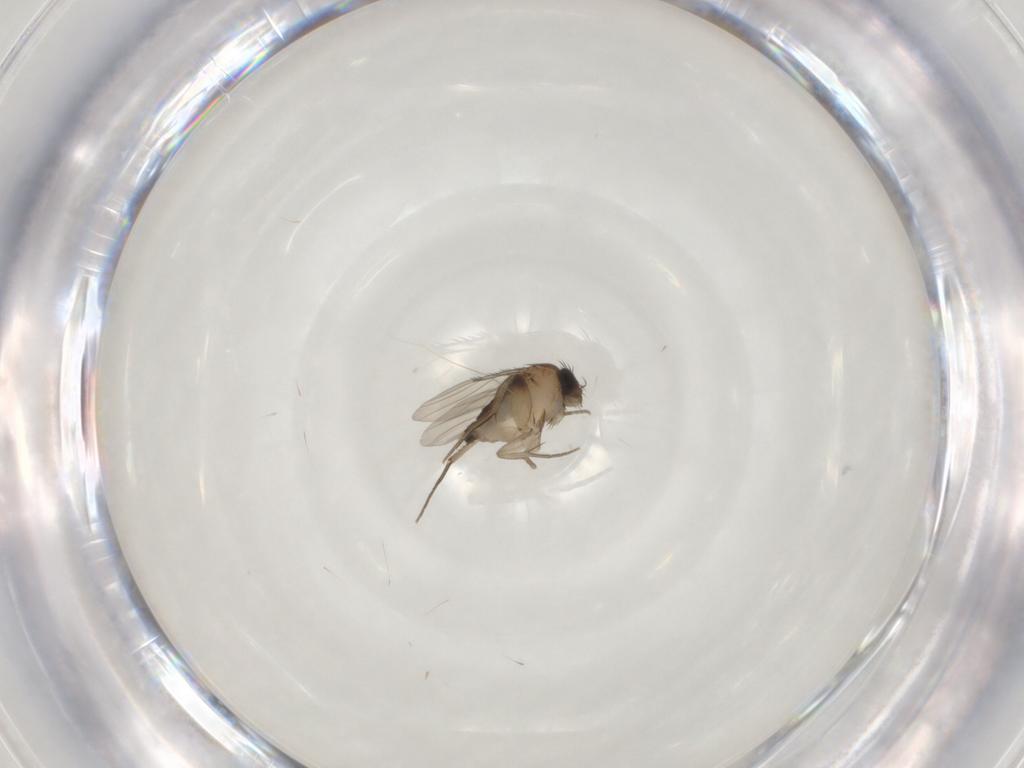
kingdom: Animalia
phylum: Arthropoda
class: Insecta
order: Diptera
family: Phoridae
